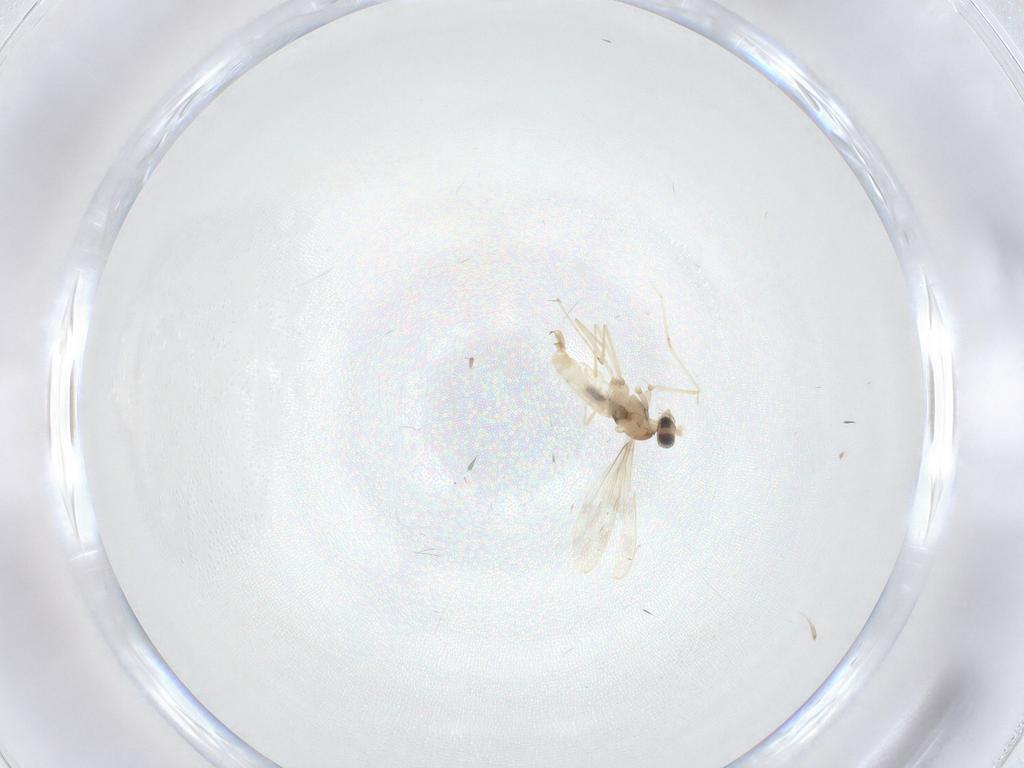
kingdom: Animalia
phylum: Arthropoda
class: Insecta
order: Diptera
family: Cecidomyiidae
